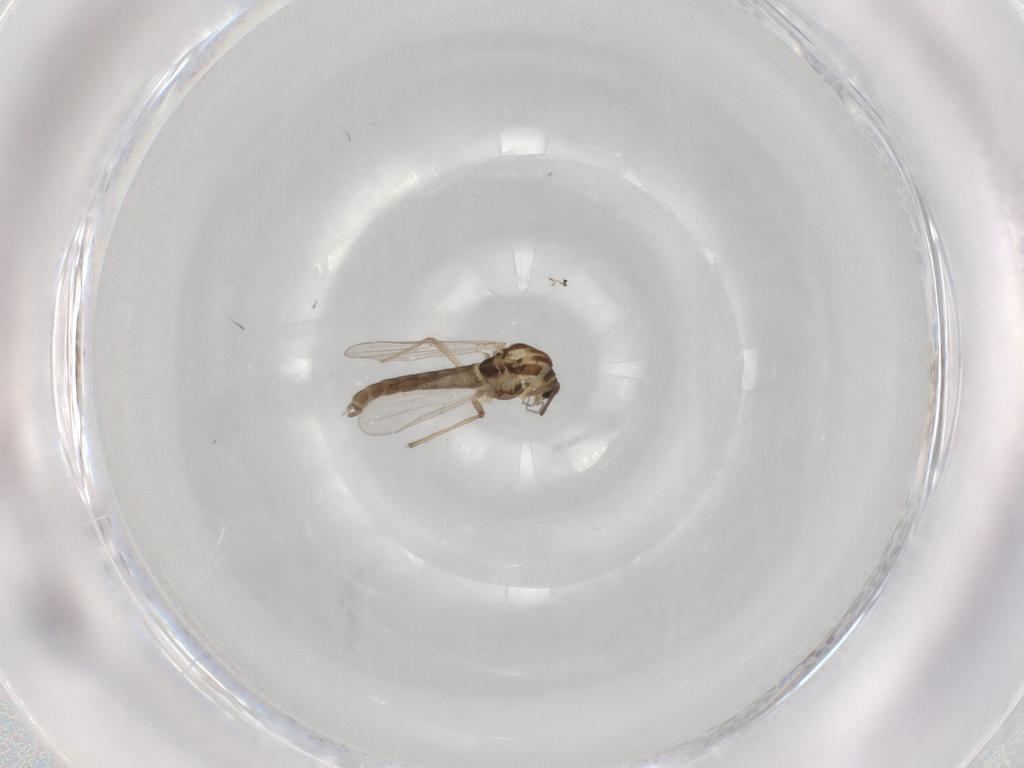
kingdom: Animalia
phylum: Arthropoda
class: Insecta
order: Diptera
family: Chironomidae
